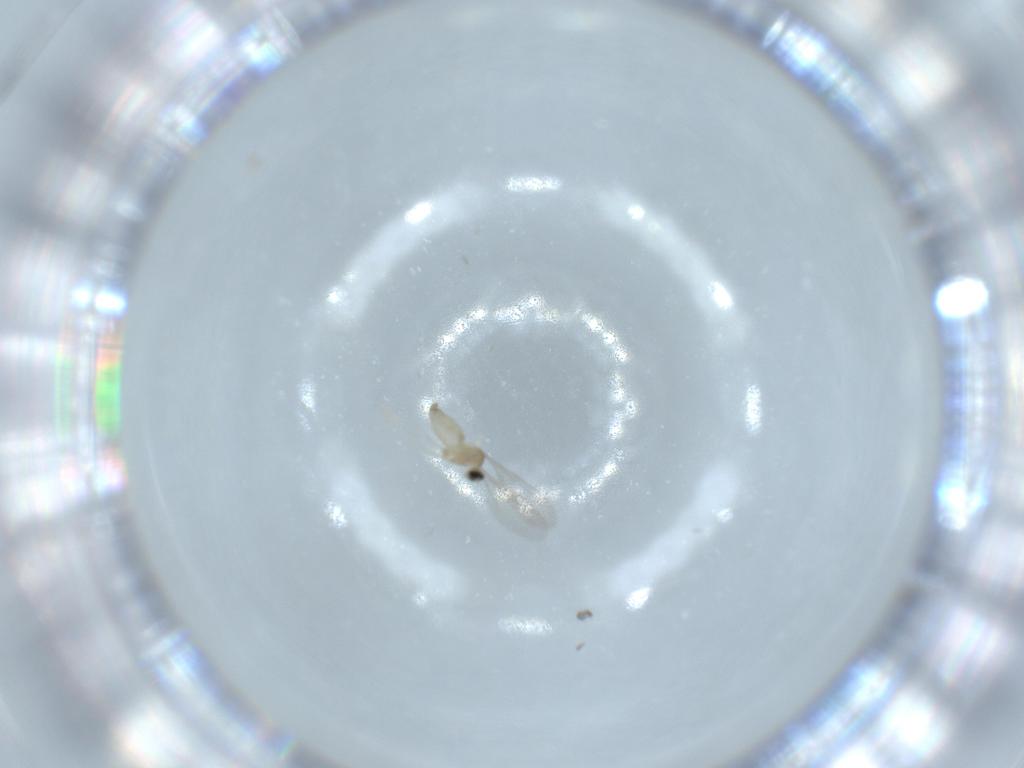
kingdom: Animalia
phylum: Arthropoda
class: Insecta
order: Diptera
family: Cecidomyiidae
